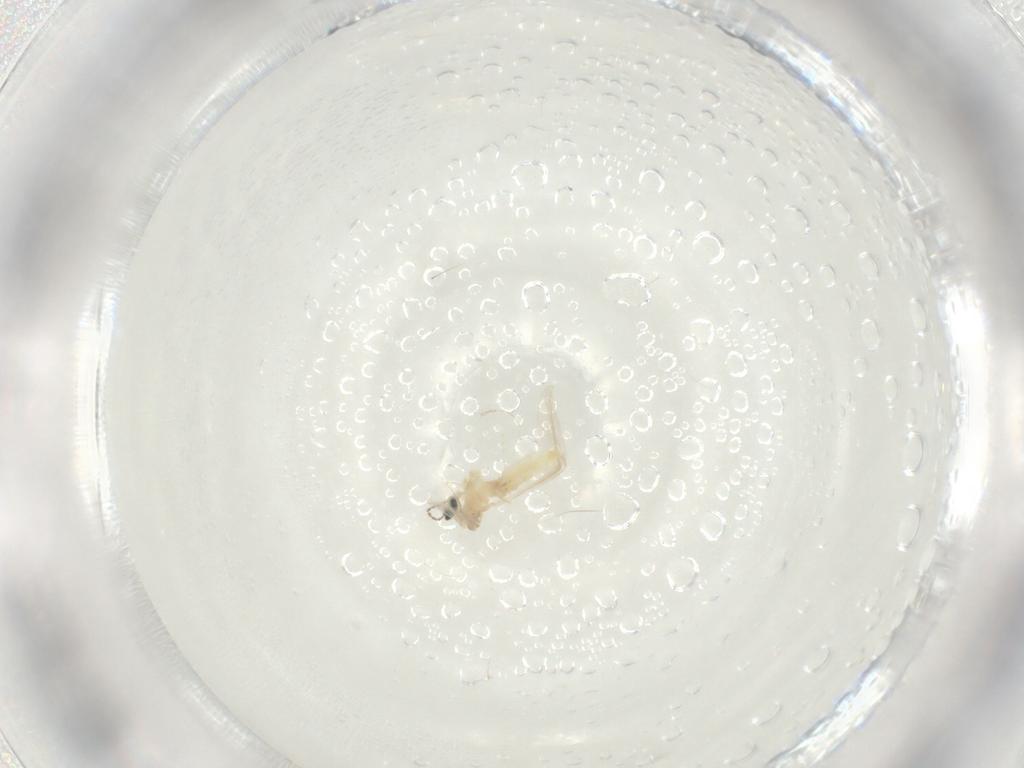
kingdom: Animalia
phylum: Arthropoda
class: Insecta
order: Diptera
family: Cecidomyiidae
